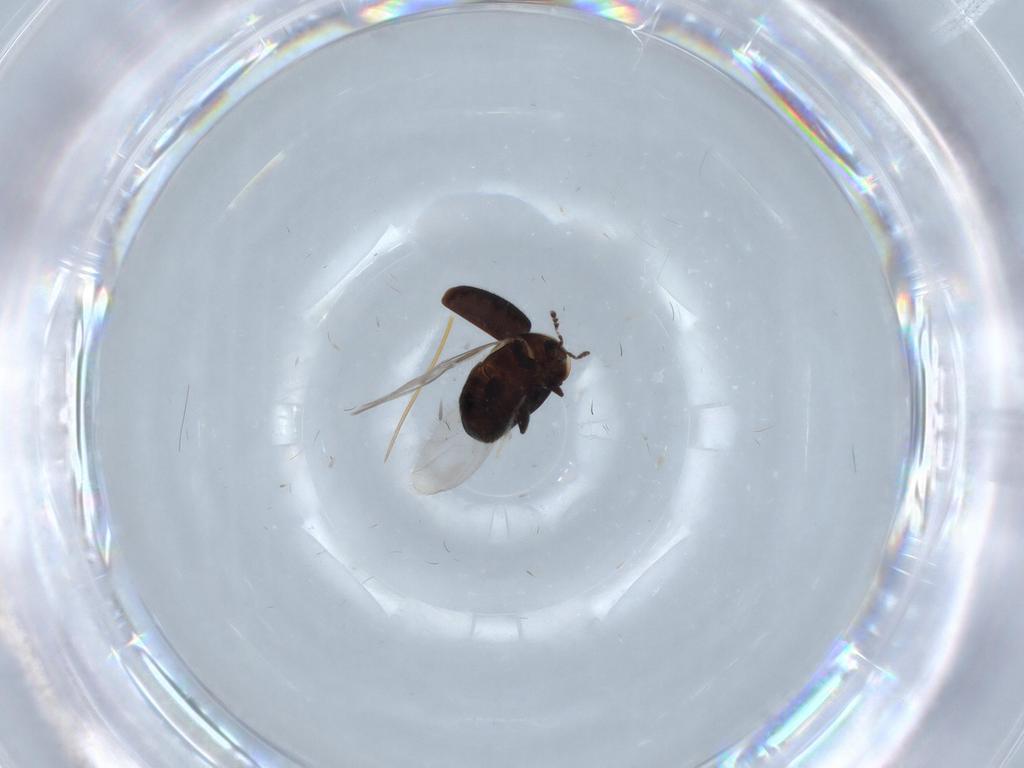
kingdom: Animalia
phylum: Arthropoda
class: Insecta
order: Coleoptera
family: Corylophidae
